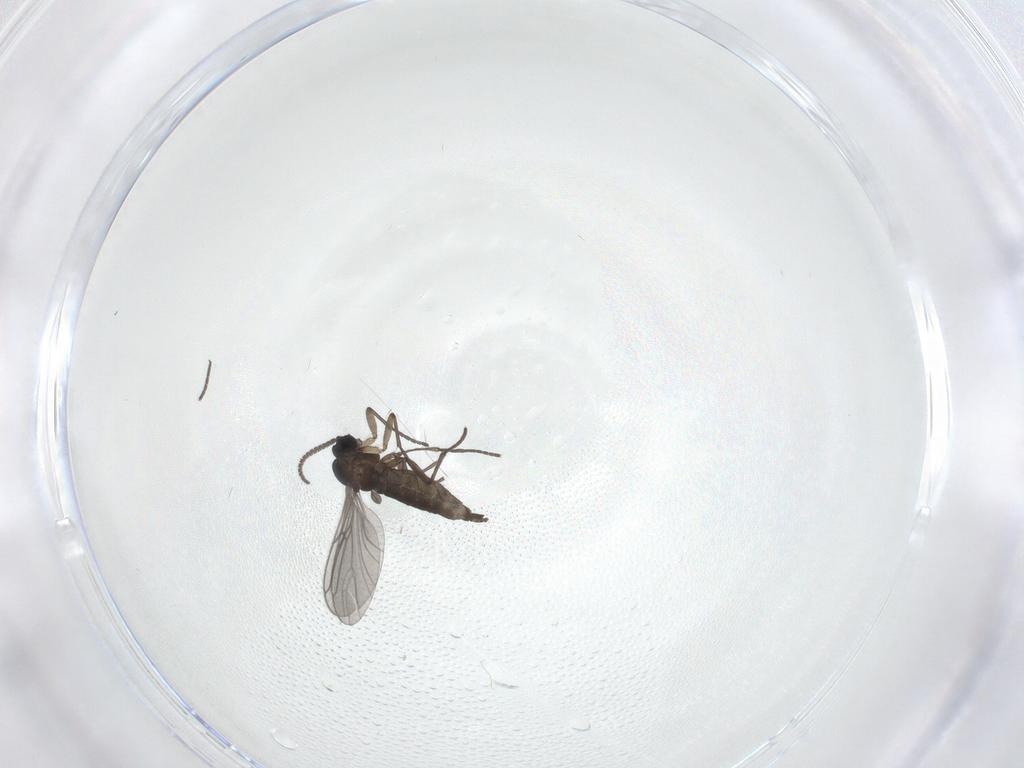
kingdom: Animalia
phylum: Arthropoda
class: Insecta
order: Diptera
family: Sciaridae
